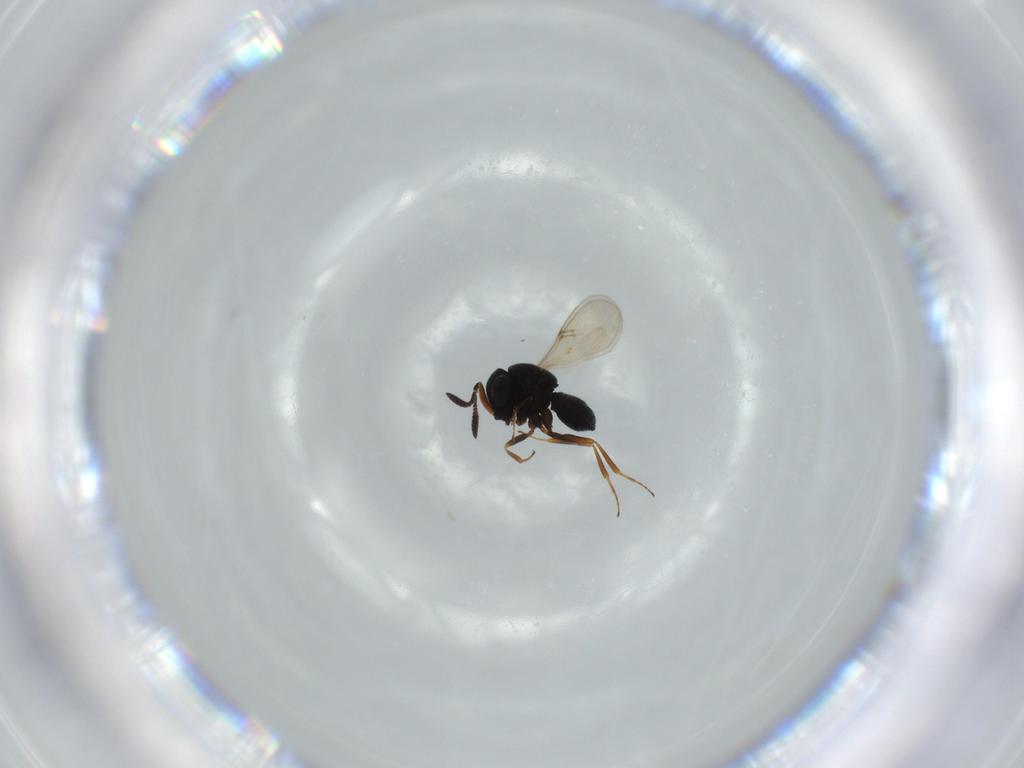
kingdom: Animalia
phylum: Arthropoda
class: Insecta
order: Hymenoptera
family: Scelionidae
